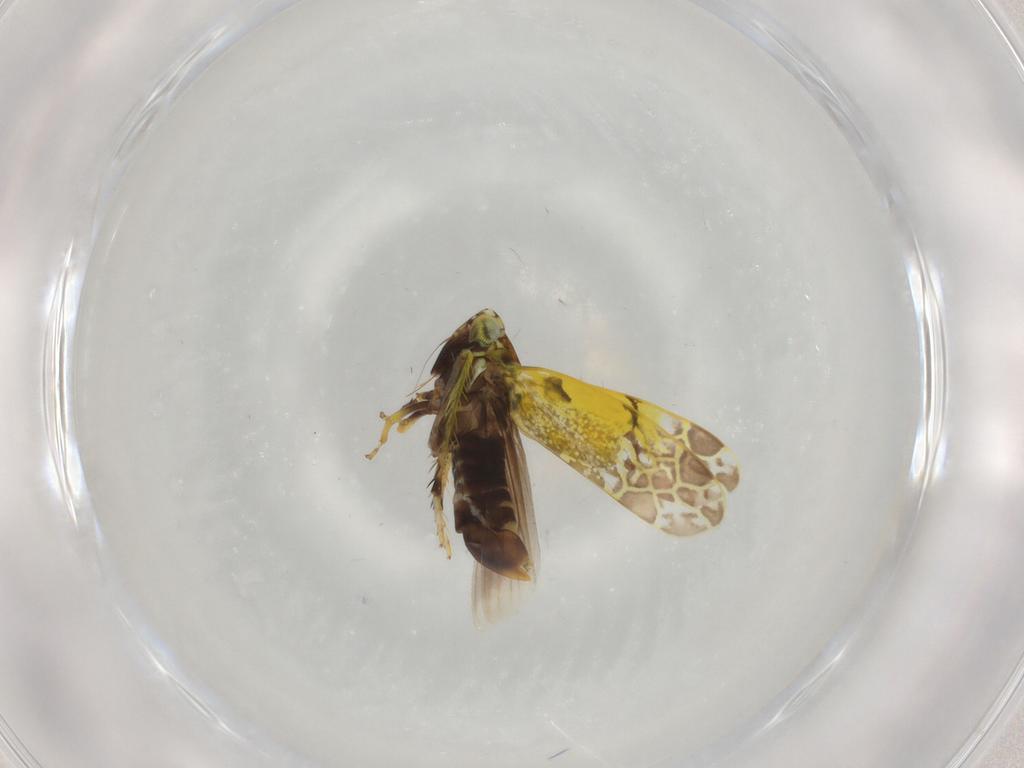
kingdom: Animalia
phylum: Arthropoda
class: Insecta
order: Hemiptera
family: Cicadellidae
